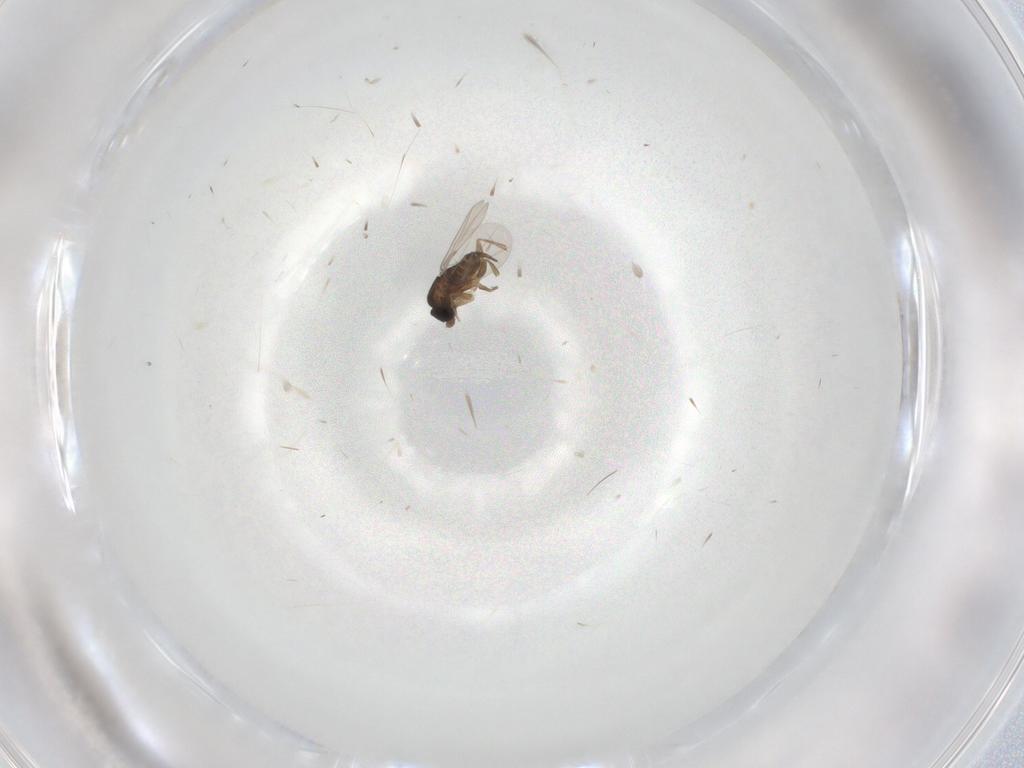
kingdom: Animalia
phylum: Arthropoda
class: Insecta
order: Diptera
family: Phoridae
